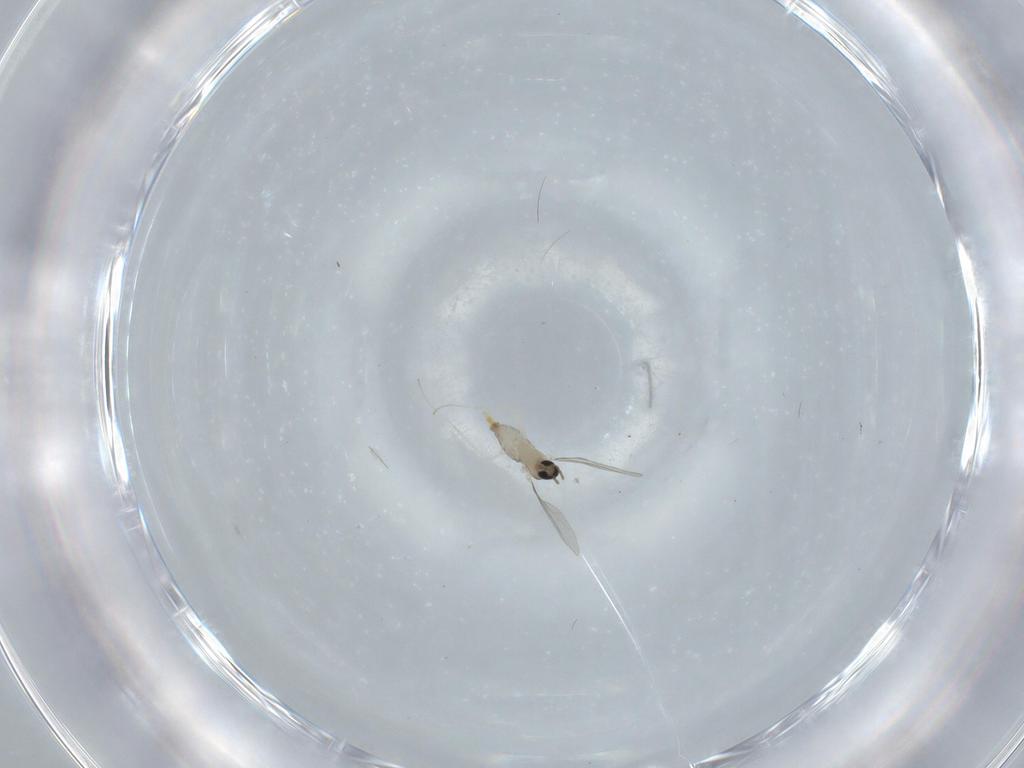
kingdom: Animalia
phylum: Arthropoda
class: Insecta
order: Diptera
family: Cecidomyiidae
